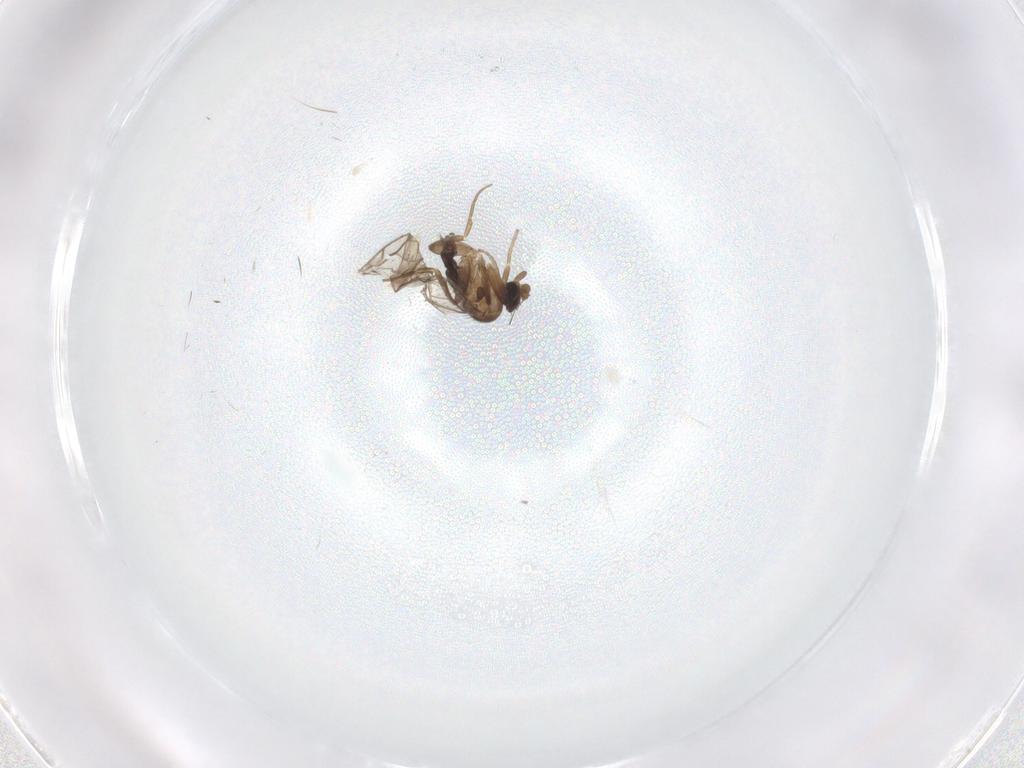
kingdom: Animalia
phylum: Arthropoda
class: Insecta
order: Diptera
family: Phoridae
